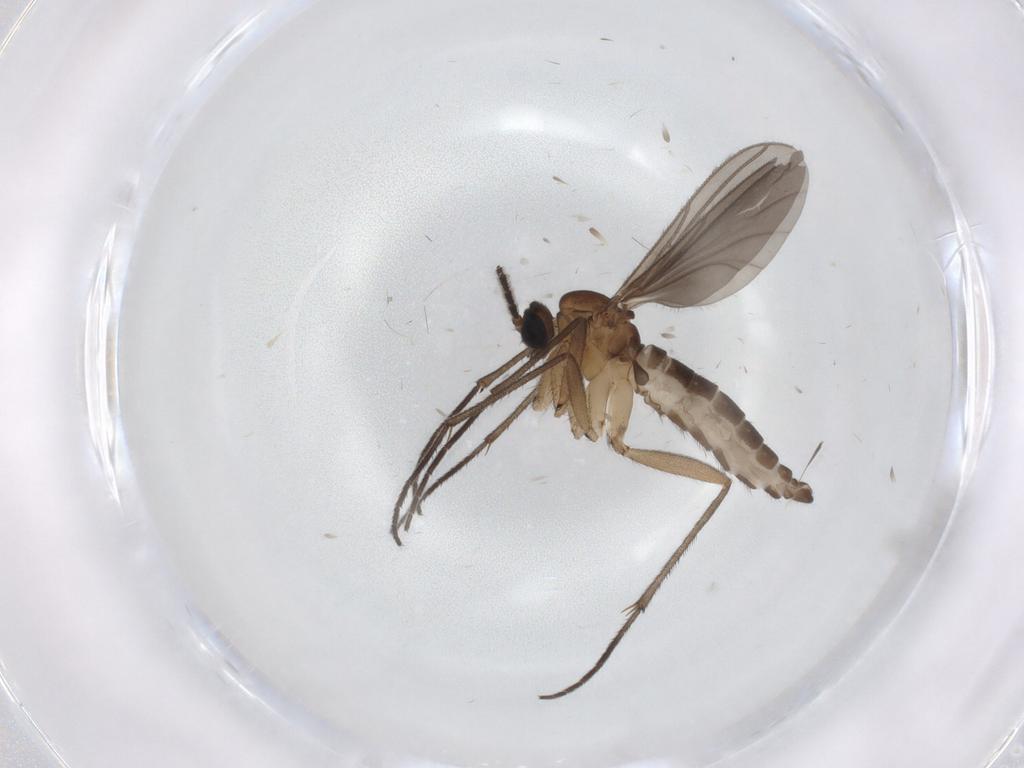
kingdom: Animalia
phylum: Arthropoda
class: Insecta
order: Diptera
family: Sciaridae
